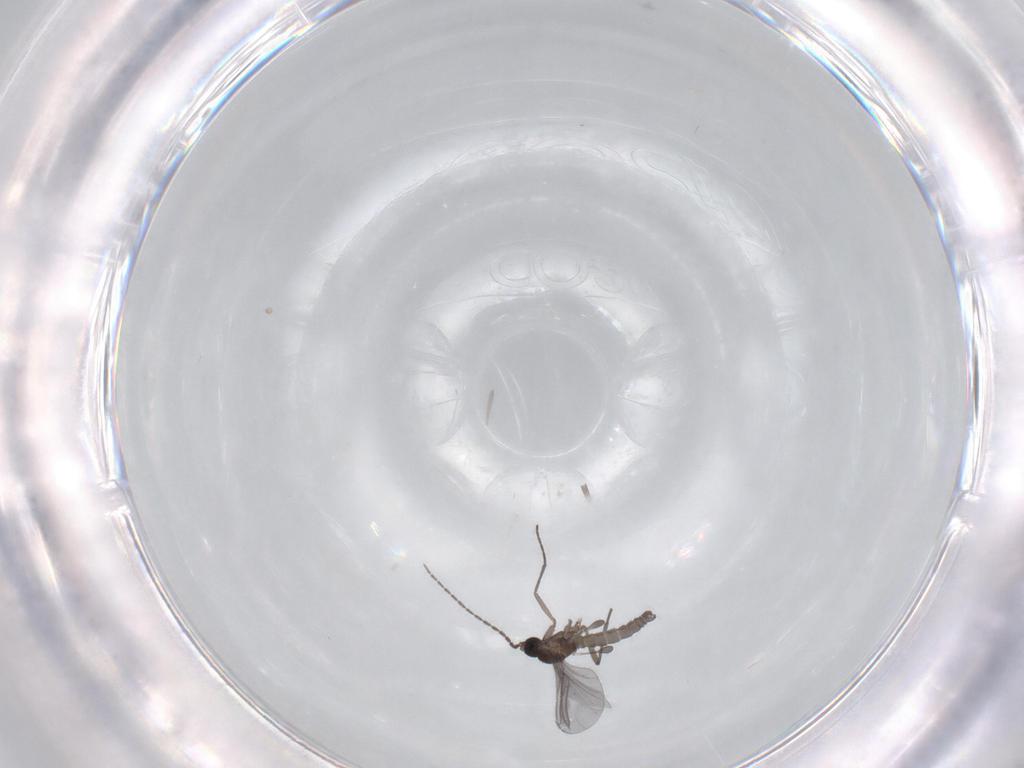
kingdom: Animalia
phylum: Arthropoda
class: Insecta
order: Diptera
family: Sciaridae
